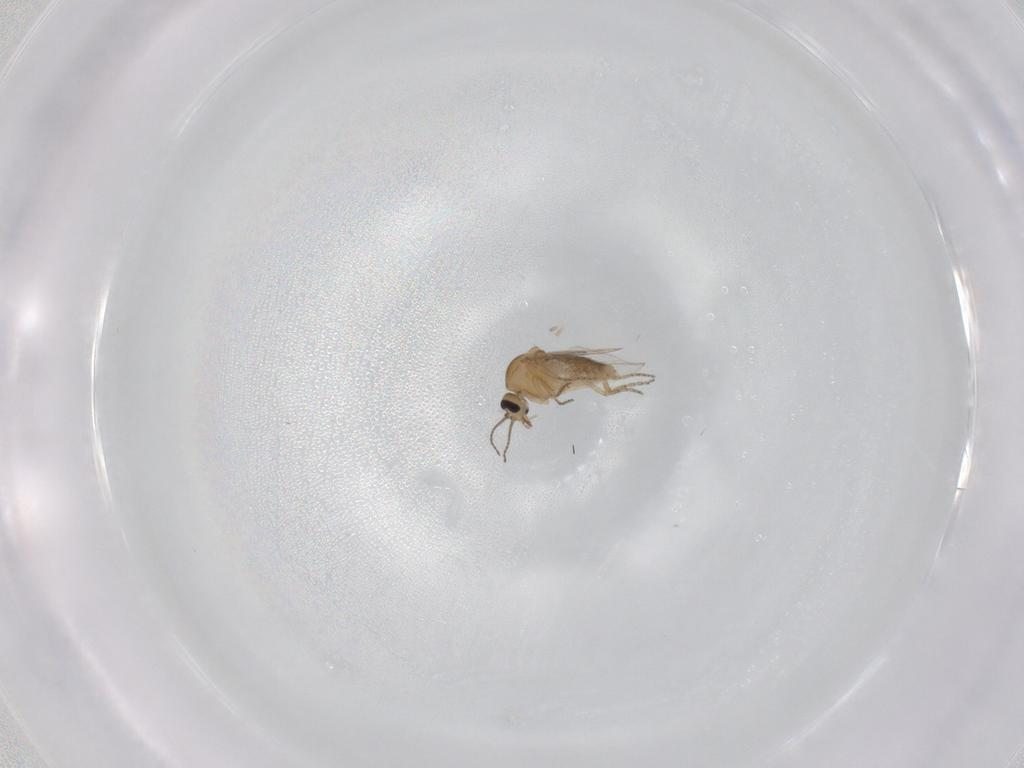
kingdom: Animalia
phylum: Arthropoda
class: Insecta
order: Diptera
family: Ceratopogonidae
